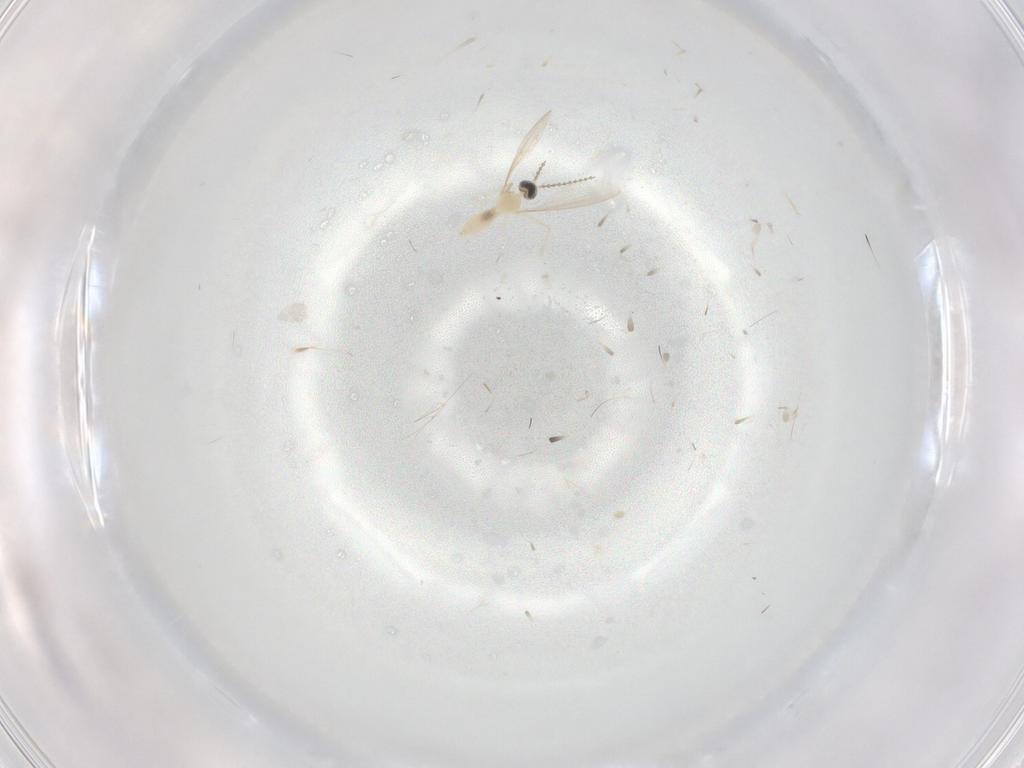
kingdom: Animalia
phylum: Arthropoda
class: Insecta
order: Diptera
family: Cecidomyiidae
